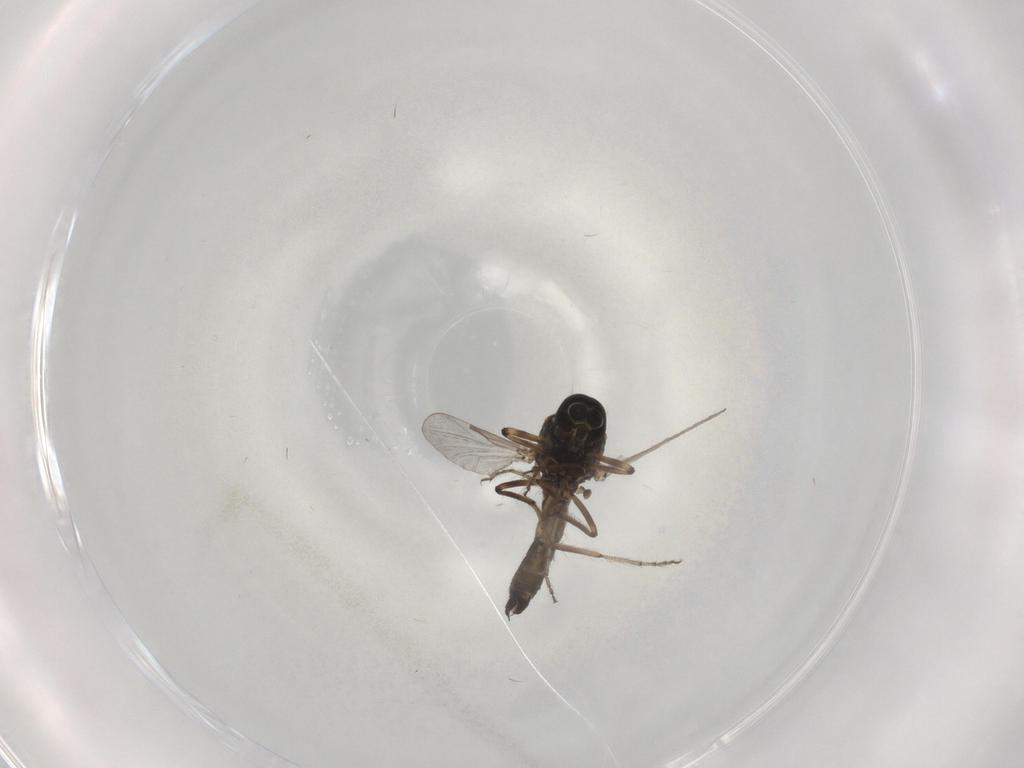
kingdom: Animalia
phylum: Arthropoda
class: Insecta
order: Diptera
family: Ceratopogonidae
